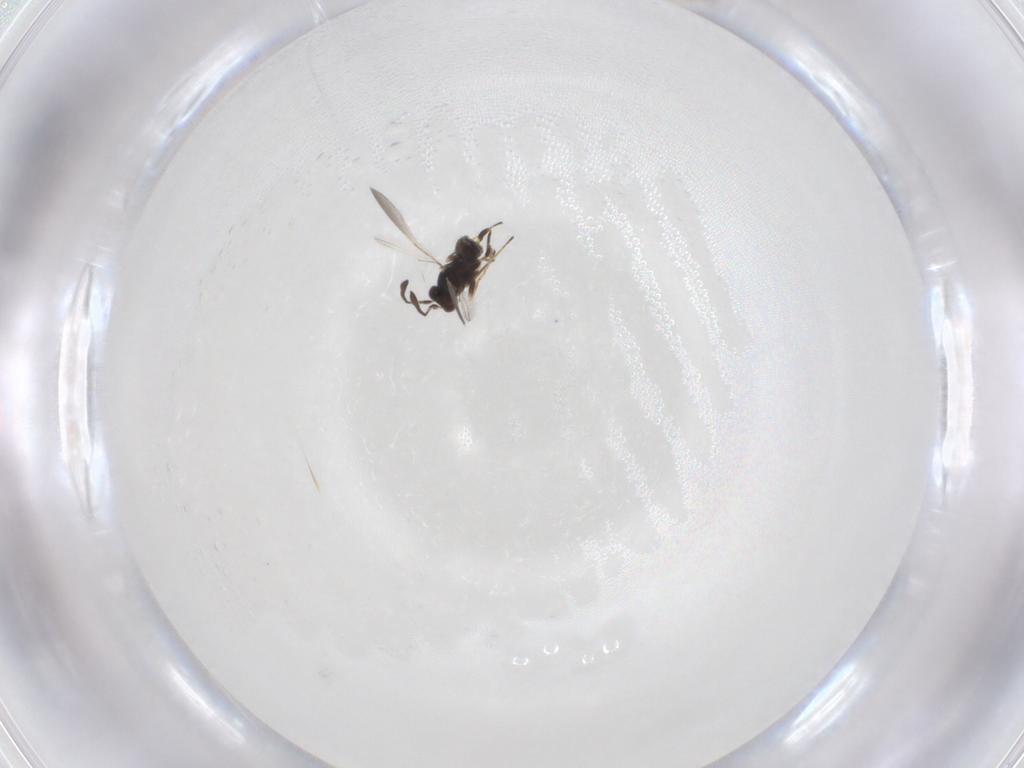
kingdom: Animalia
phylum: Arthropoda
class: Insecta
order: Hymenoptera
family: Mymaridae
